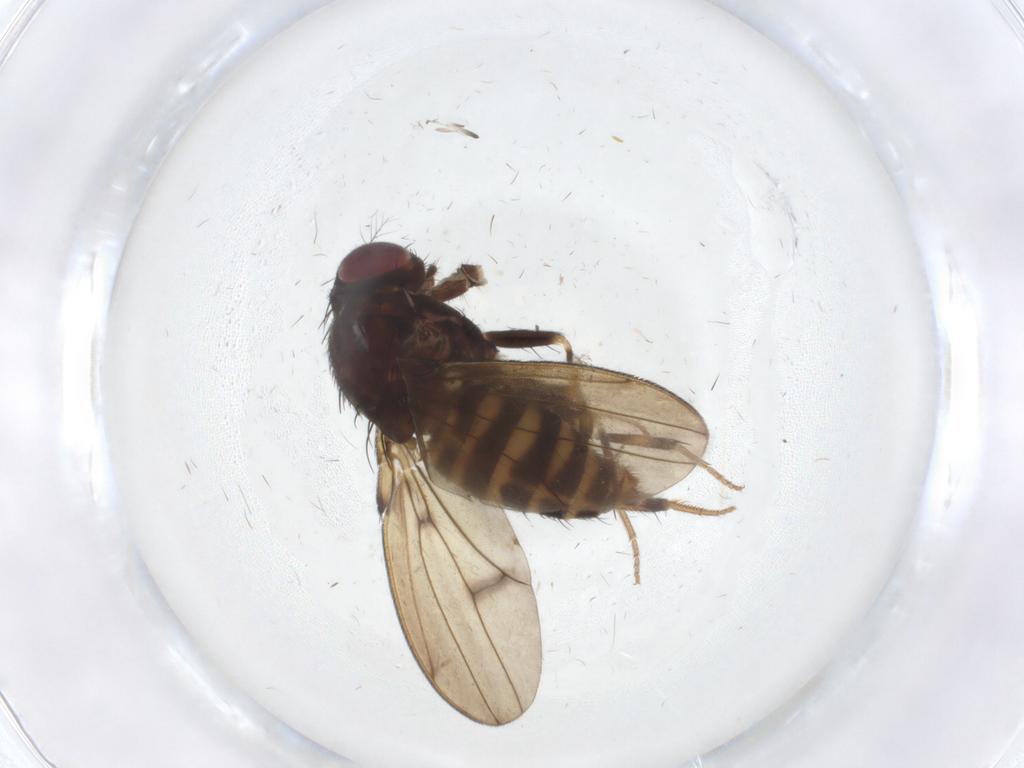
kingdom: Animalia
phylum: Arthropoda
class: Insecta
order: Diptera
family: Drosophilidae
